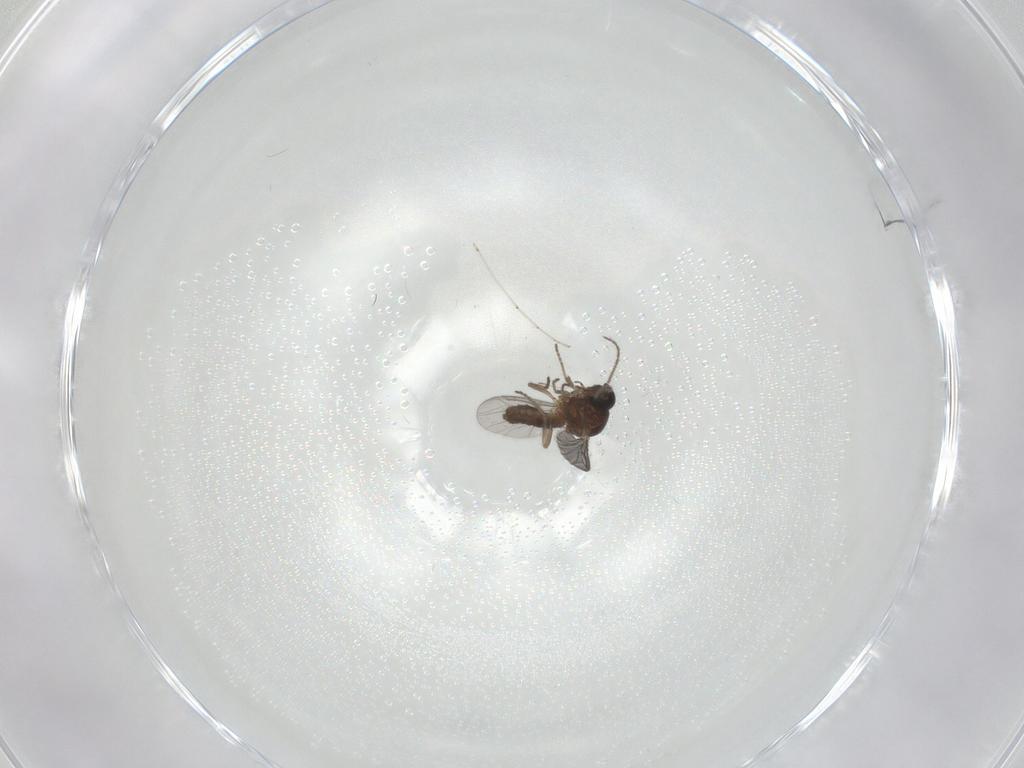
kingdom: Animalia
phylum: Arthropoda
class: Insecta
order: Diptera
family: Ceratopogonidae
